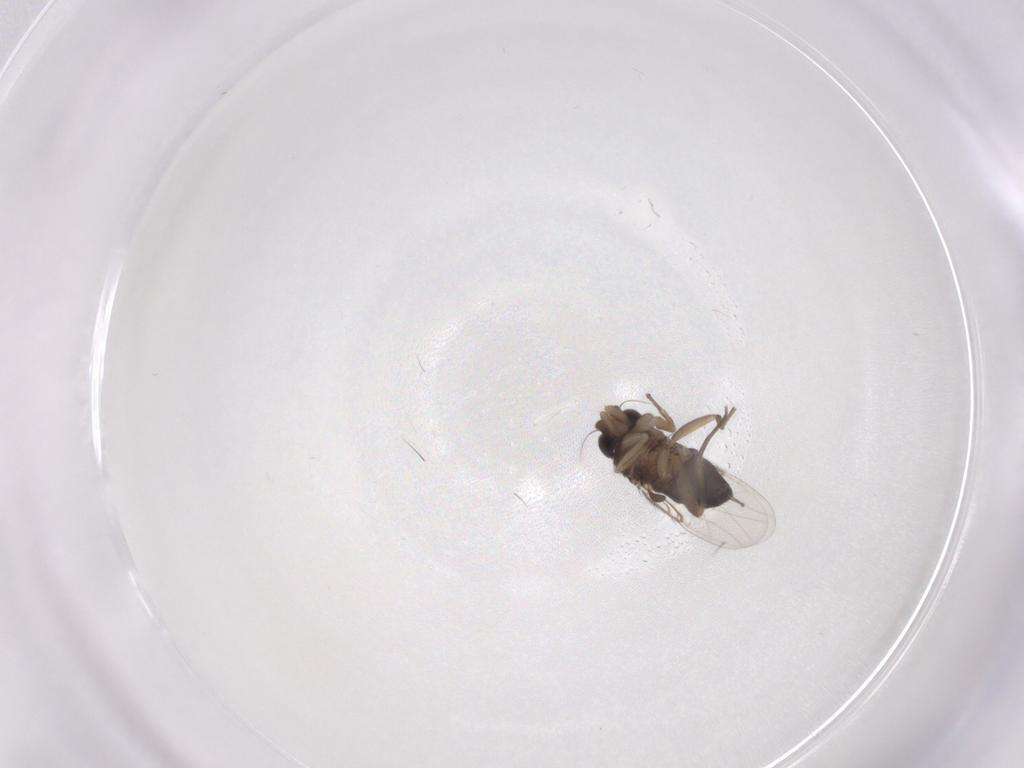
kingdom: Animalia
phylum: Arthropoda
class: Insecta
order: Diptera
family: Phoridae
